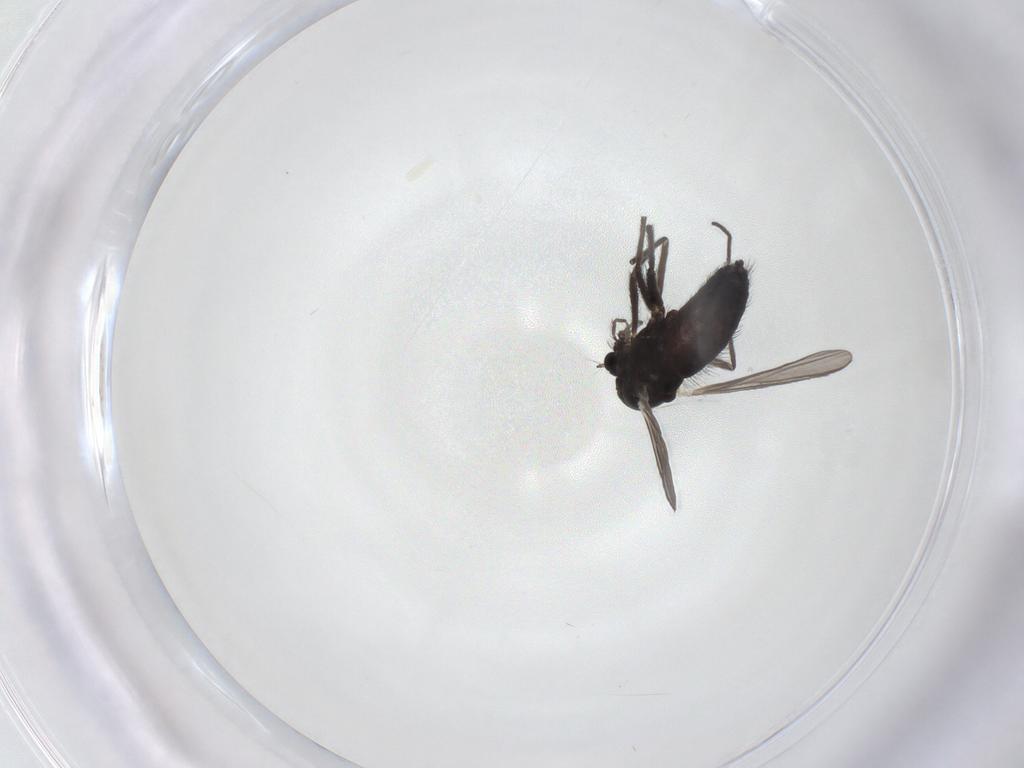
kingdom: Animalia
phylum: Arthropoda
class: Insecta
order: Diptera
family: Chironomidae
